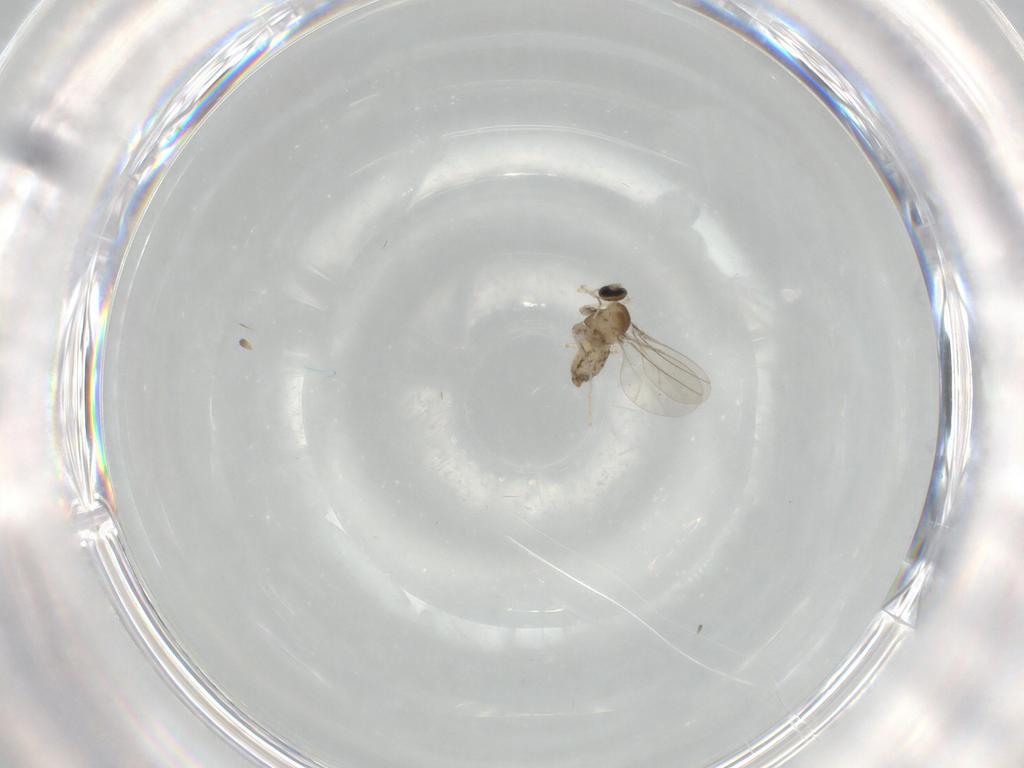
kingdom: Animalia
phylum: Arthropoda
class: Insecta
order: Diptera
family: Cecidomyiidae
